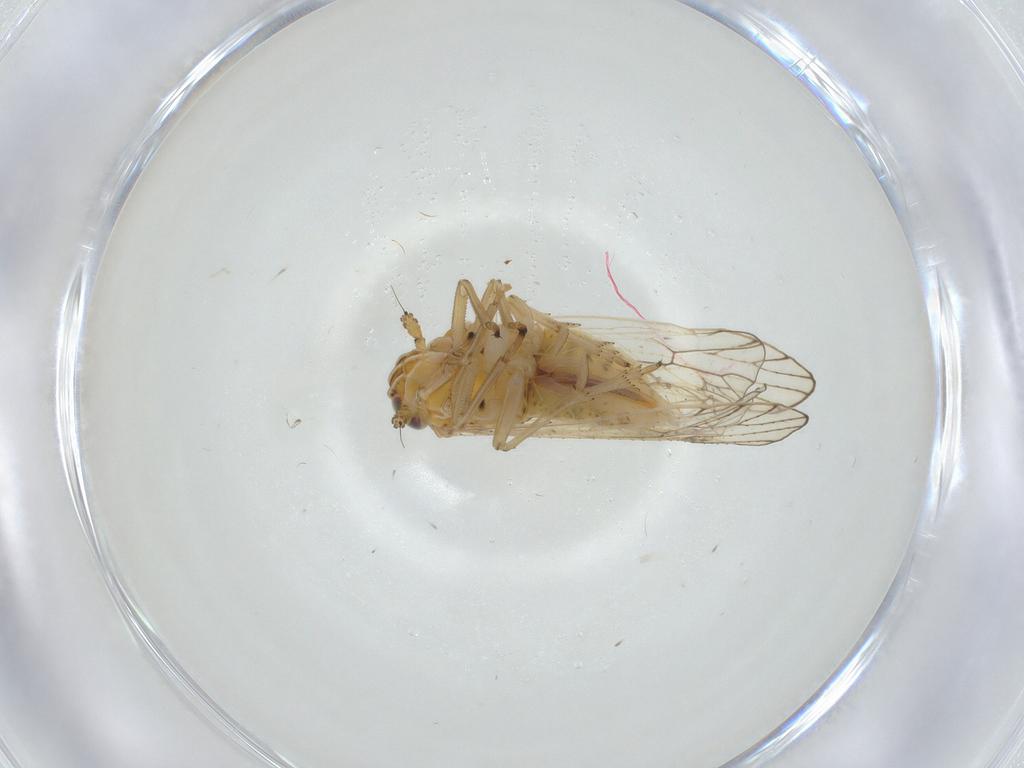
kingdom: Animalia
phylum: Arthropoda
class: Insecta
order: Hemiptera
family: Delphacidae
